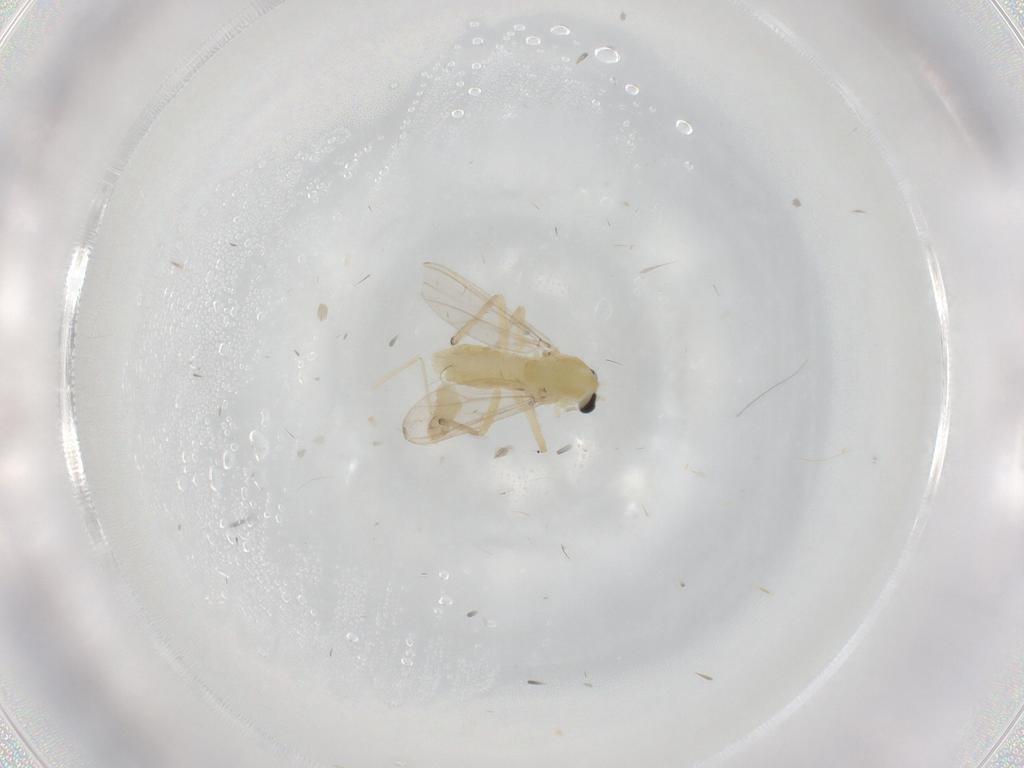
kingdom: Animalia
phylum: Arthropoda
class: Insecta
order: Diptera
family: Chironomidae
